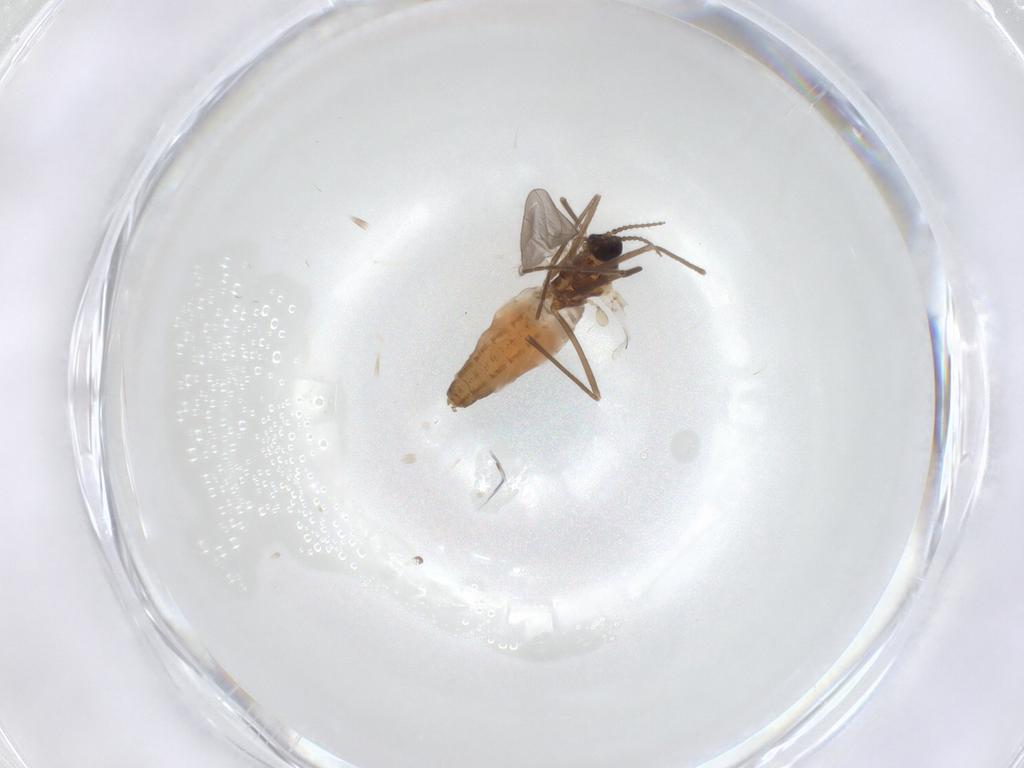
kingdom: Animalia
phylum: Arthropoda
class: Insecta
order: Diptera
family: Cecidomyiidae
